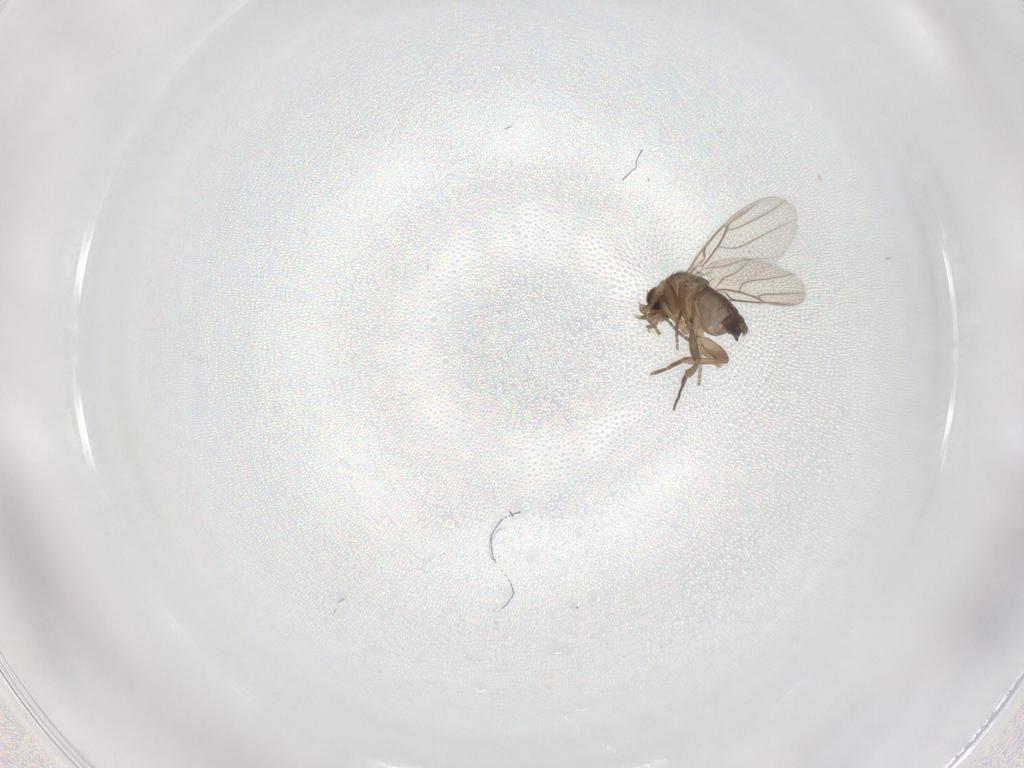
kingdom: Animalia
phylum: Arthropoda
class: Insecta
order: Diptera
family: Phoridae
